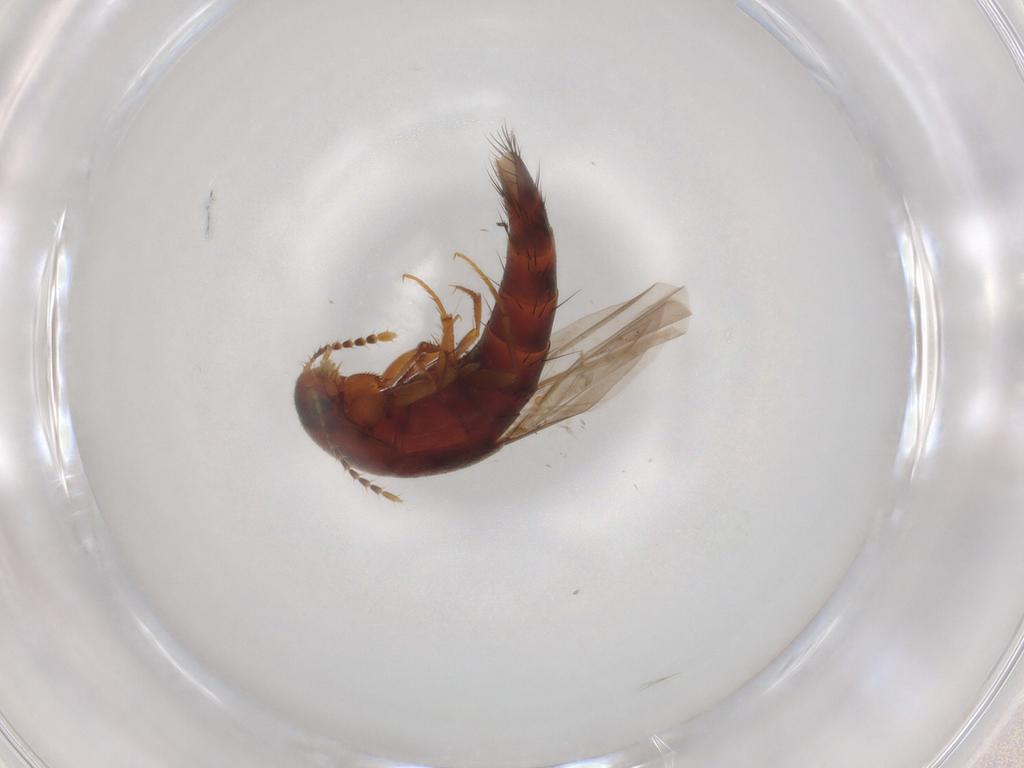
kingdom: Animalia
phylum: Arthropoda
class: Insecta
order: Coleoptera
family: Staphylinidae
